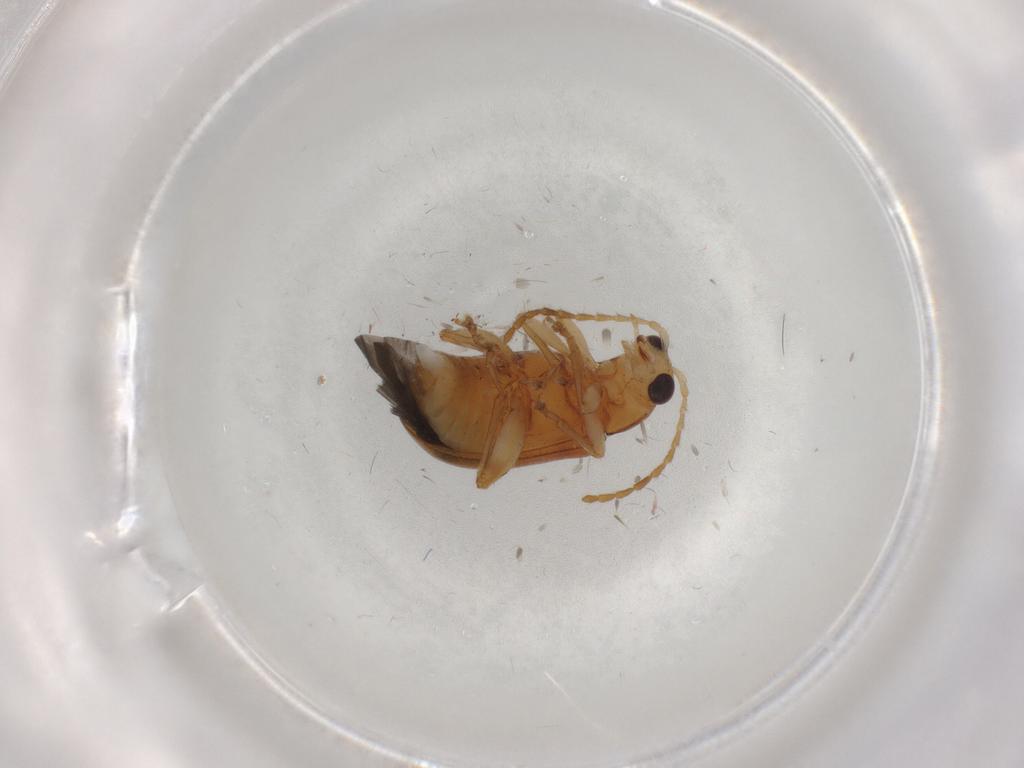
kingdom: Animalia
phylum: Arthropoda
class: Insecta
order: Coleoptera
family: Chrysomelidae
